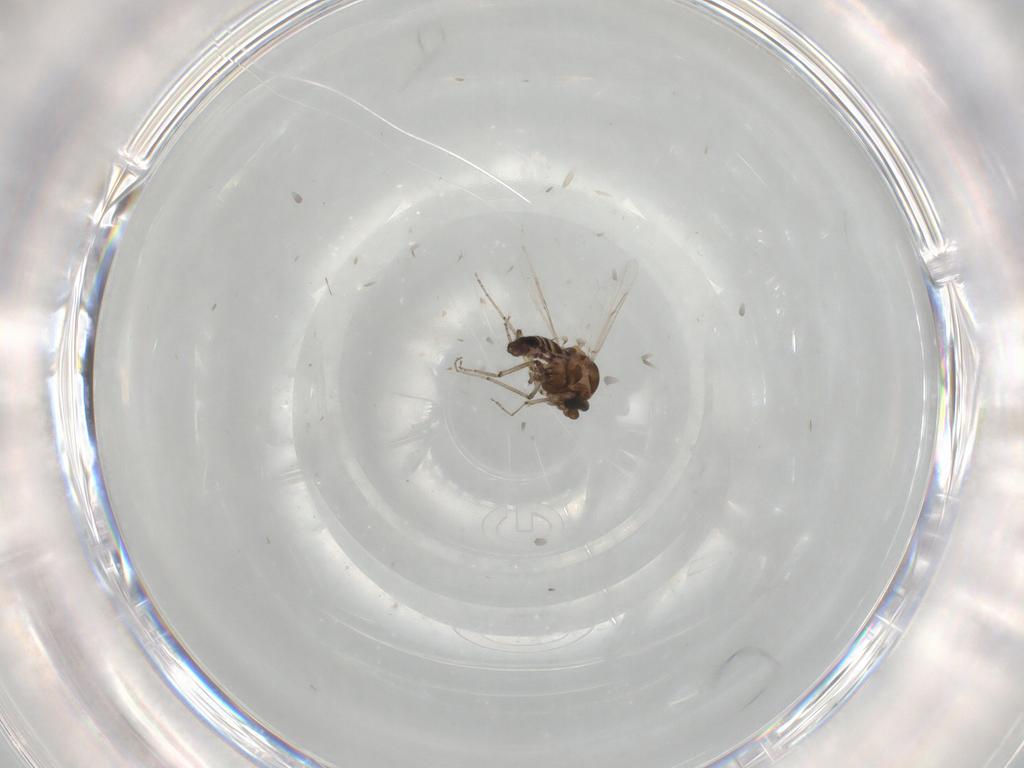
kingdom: Animalia
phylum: Arthropoda
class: Insecta
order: Diptera
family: Ceratopogonidae
